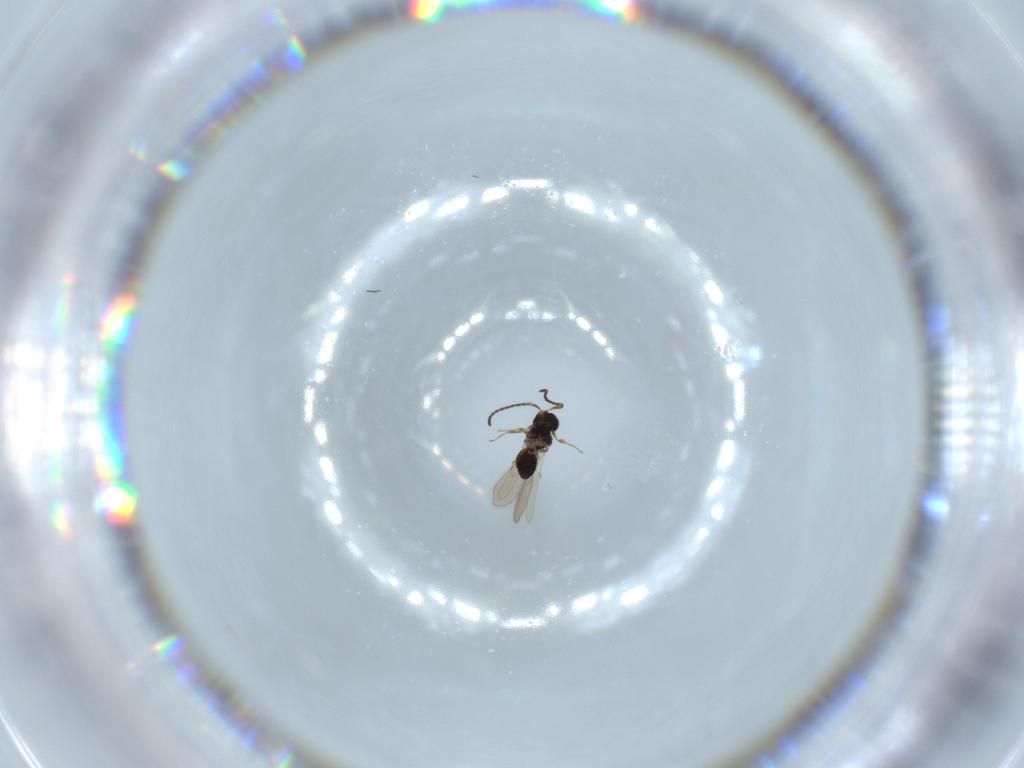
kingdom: Animalia
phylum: Arthropoda
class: Insecta
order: Hymenoptera
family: Scelionidae
